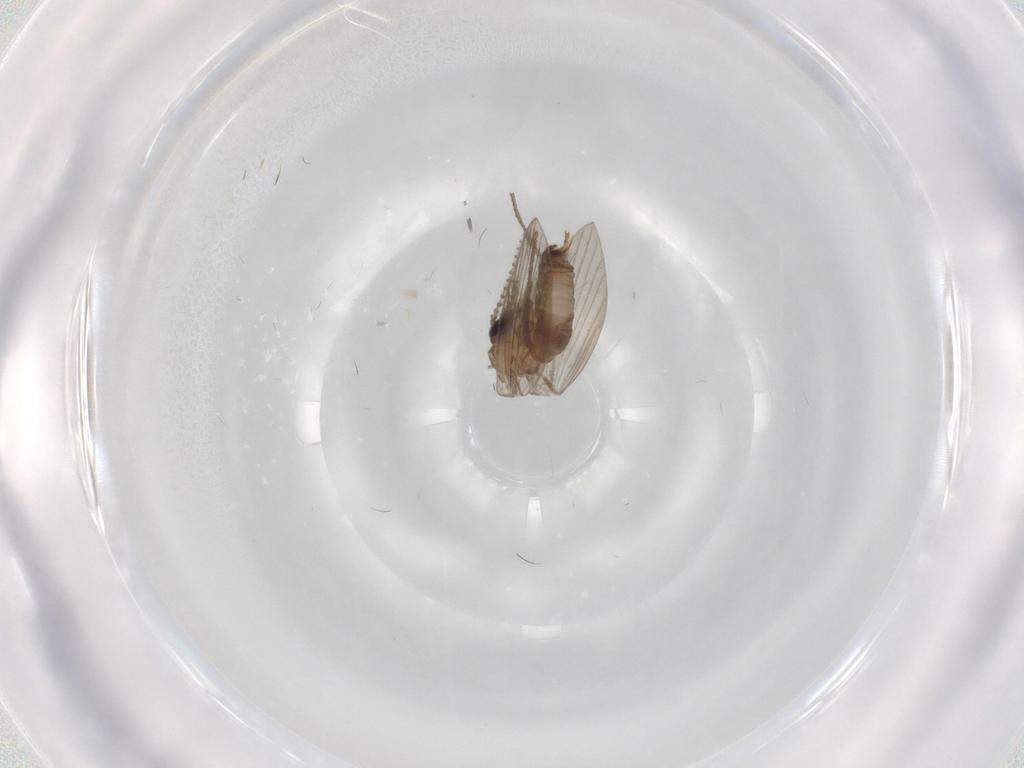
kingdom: Animalia
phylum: Arthropoda
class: Insecta
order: Diptera
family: Psychodidae
